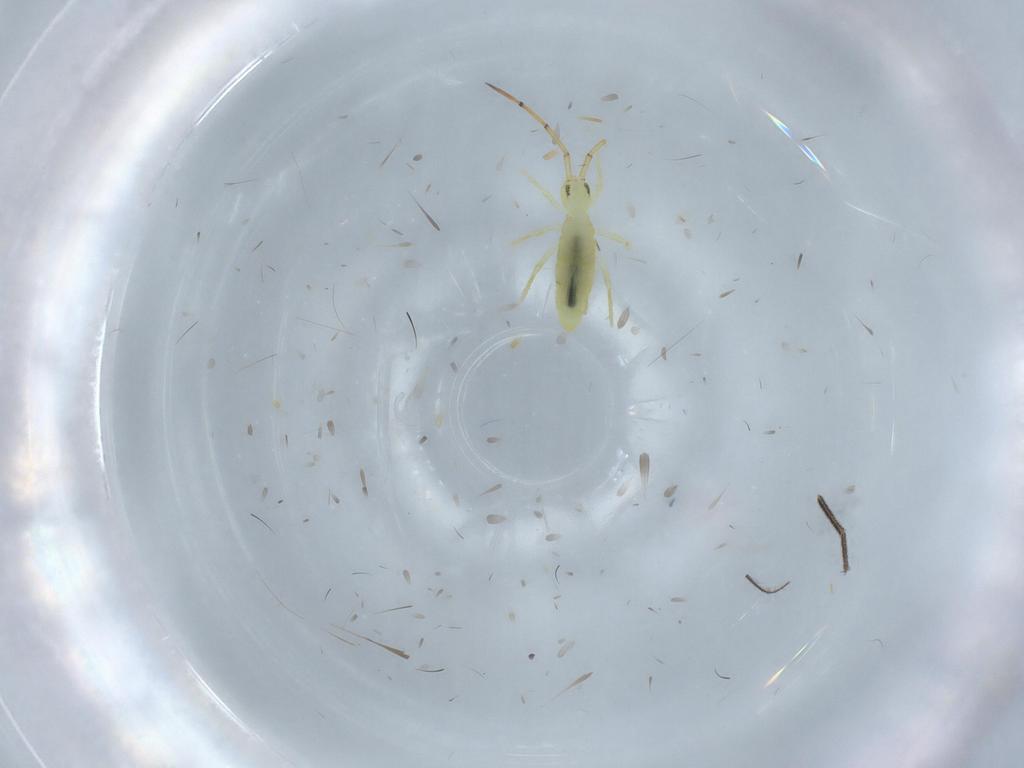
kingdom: Animalia
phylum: Arthropoda
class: Collembola
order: Entomobryomorpha
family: Paronellidae
